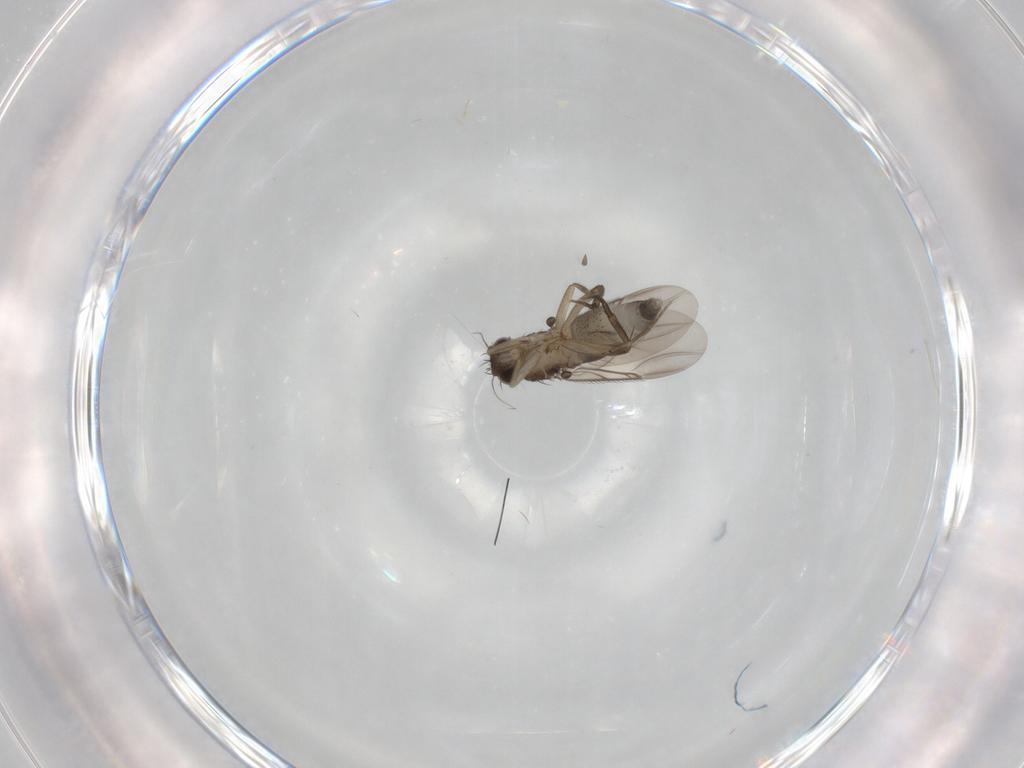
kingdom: Animalia
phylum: Arthropoda
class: Insecta
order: Diptera
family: Phoridae
